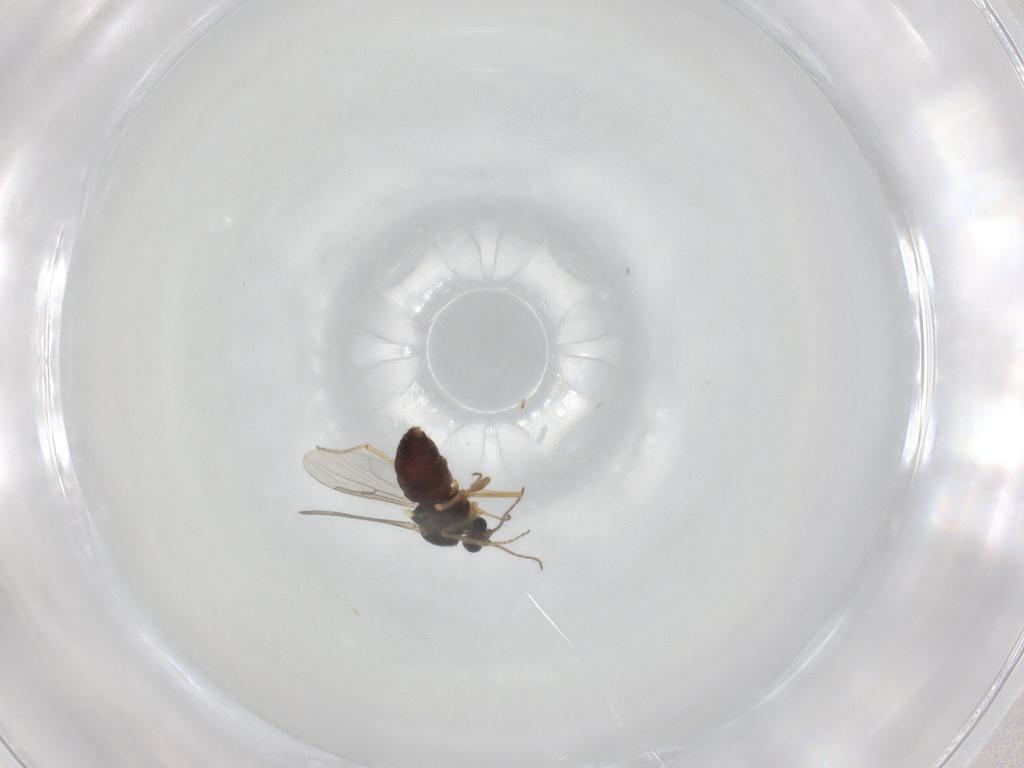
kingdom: Animalia
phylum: Arthropoda
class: Insecta
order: Diptera
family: Ceratopogonidae
